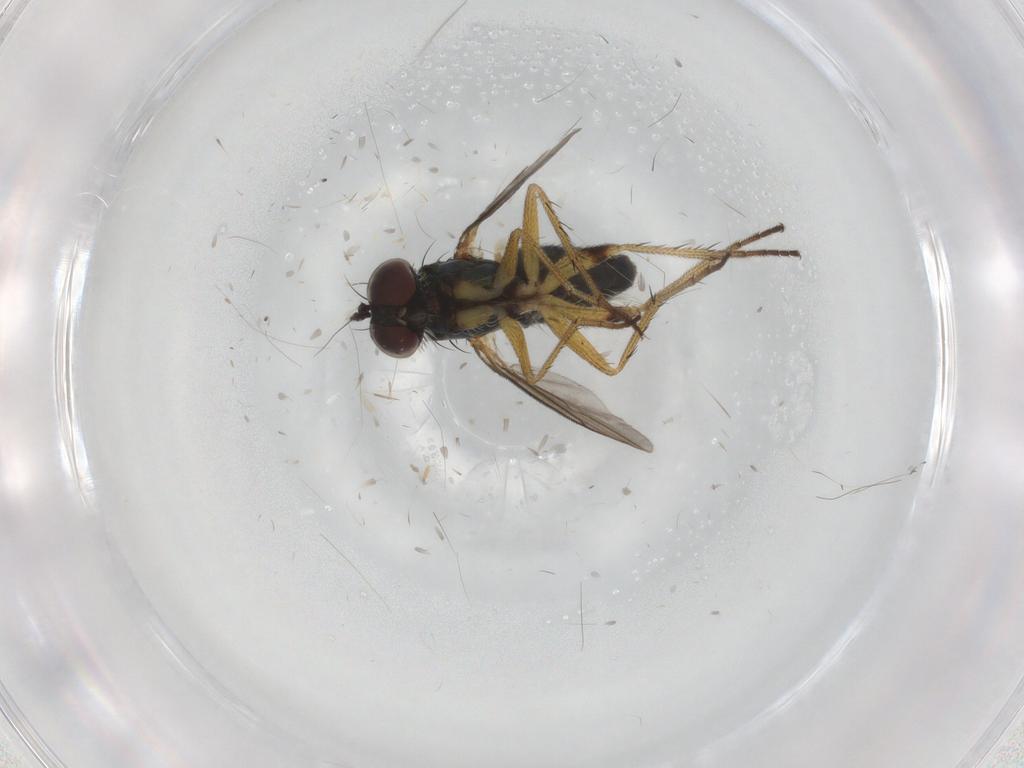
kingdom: Animalia
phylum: Arthropoda
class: Insecta
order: Diptera
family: Dolichopodidae
